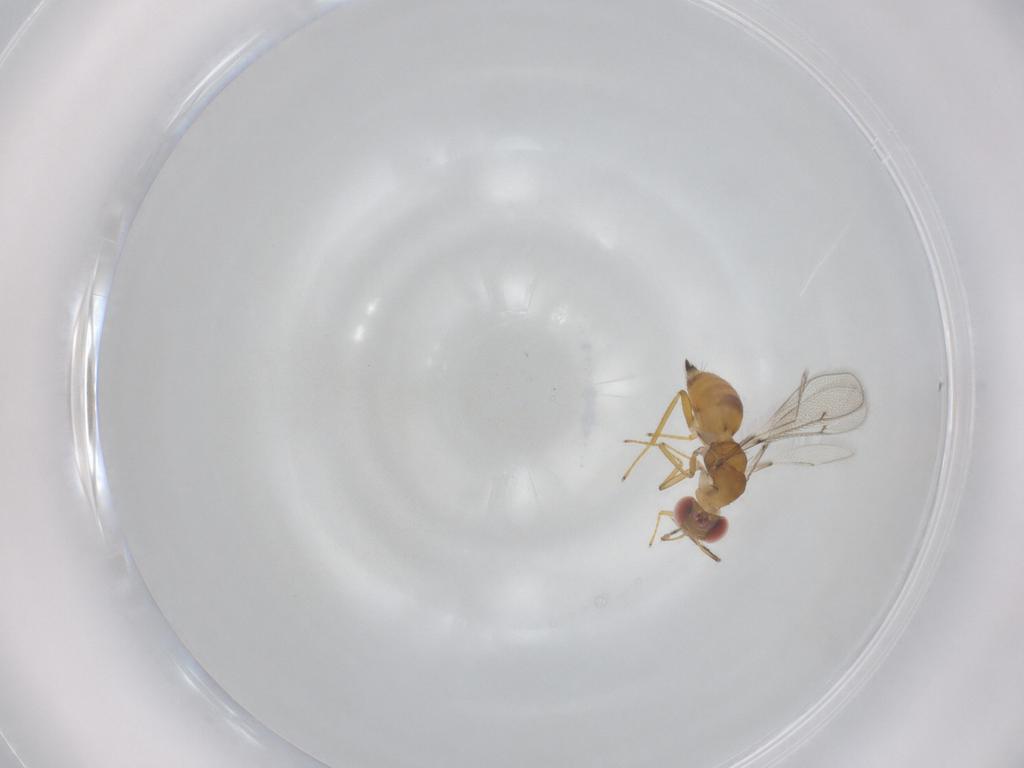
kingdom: Animalia
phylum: Arthropoda
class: Insecta
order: Hymenoptera
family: Eulophidae
